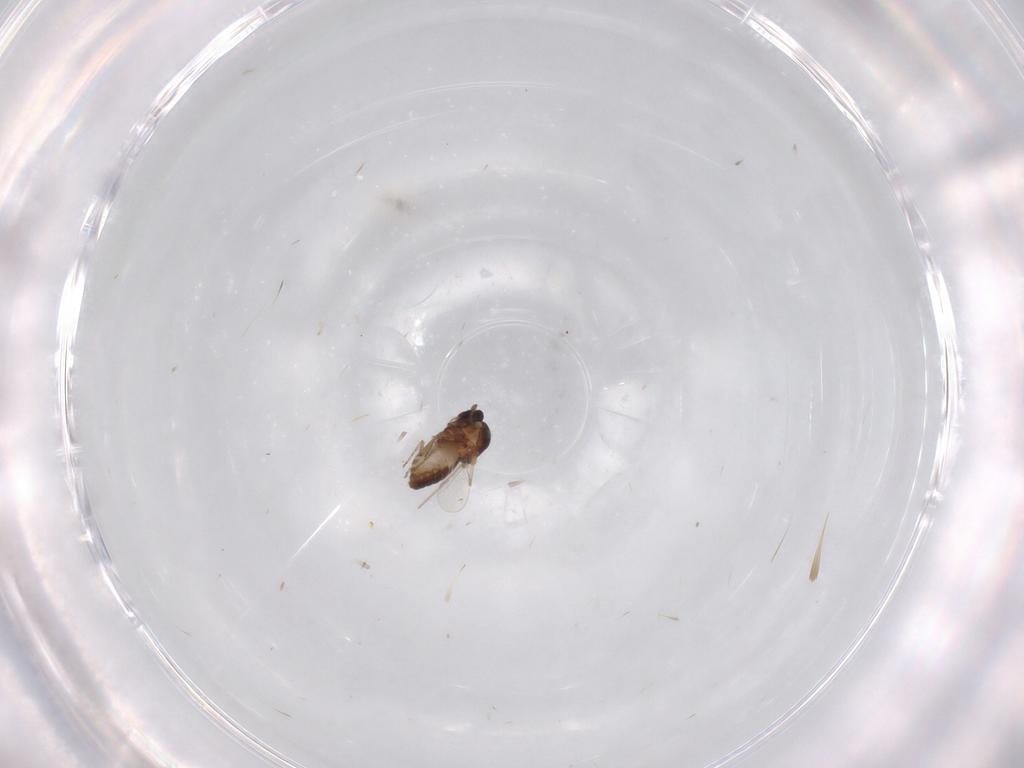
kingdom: Animalia
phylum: Arthropoda
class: Insecta
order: Diptera
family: Ceratopogonidae
